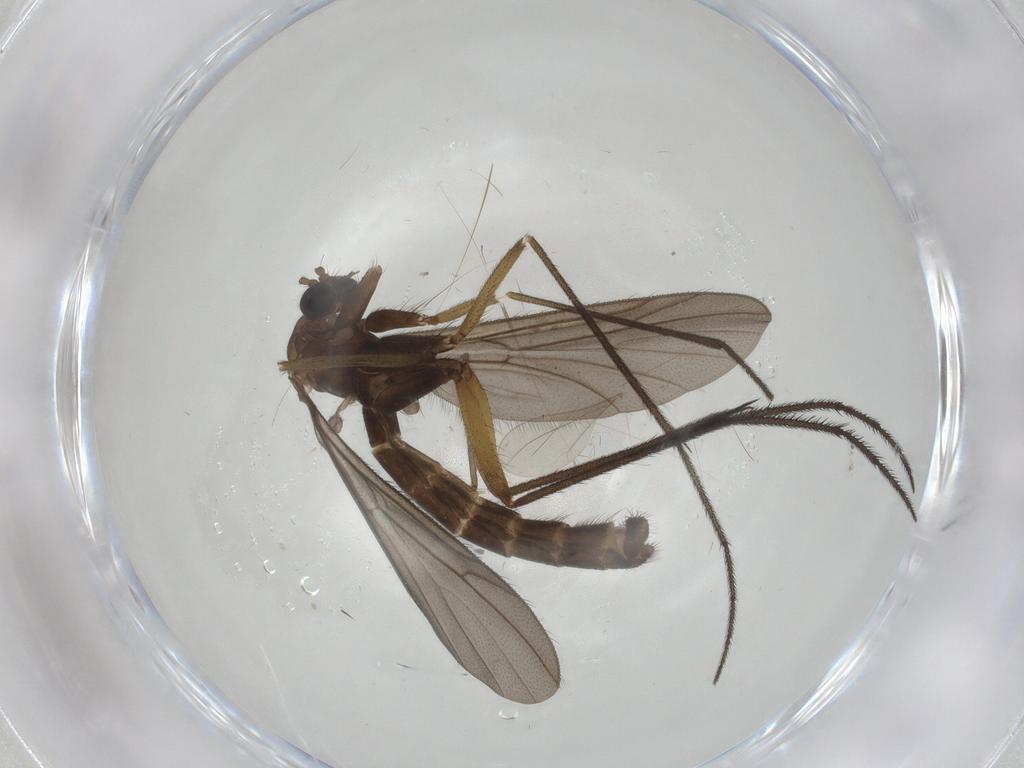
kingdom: Animalia
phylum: Arthropoda
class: Insecta
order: Diptera
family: Ditomyiidae
